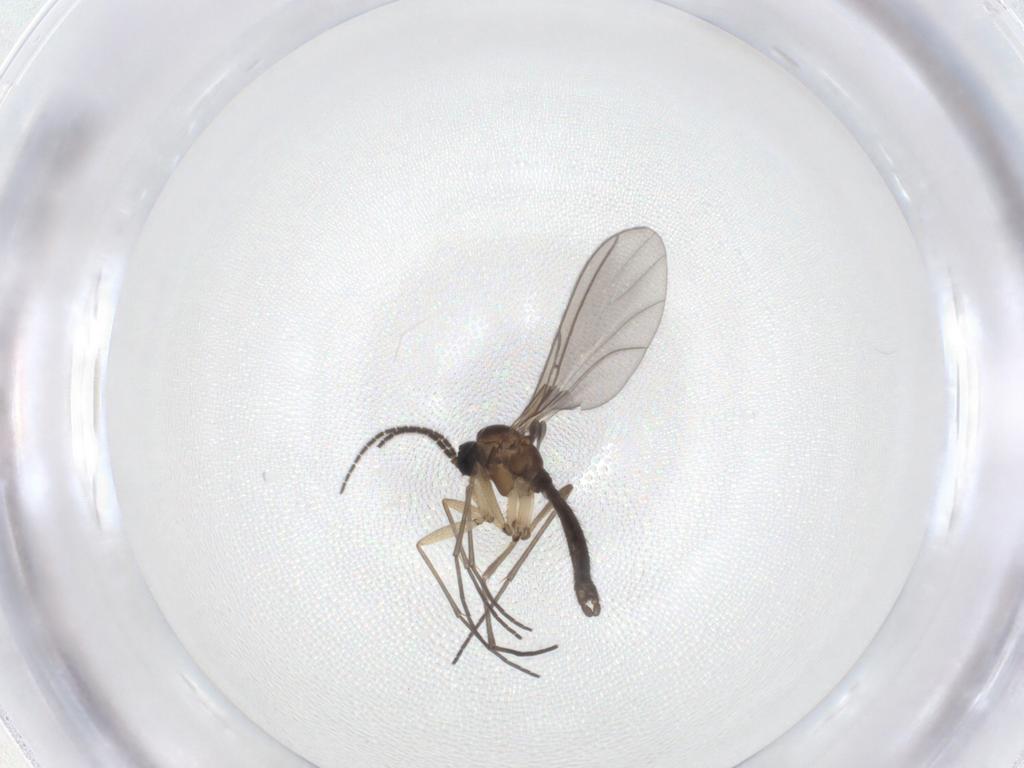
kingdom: Animalia
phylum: Arthropoda
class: Insecta
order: Diptera
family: Sciaridae
